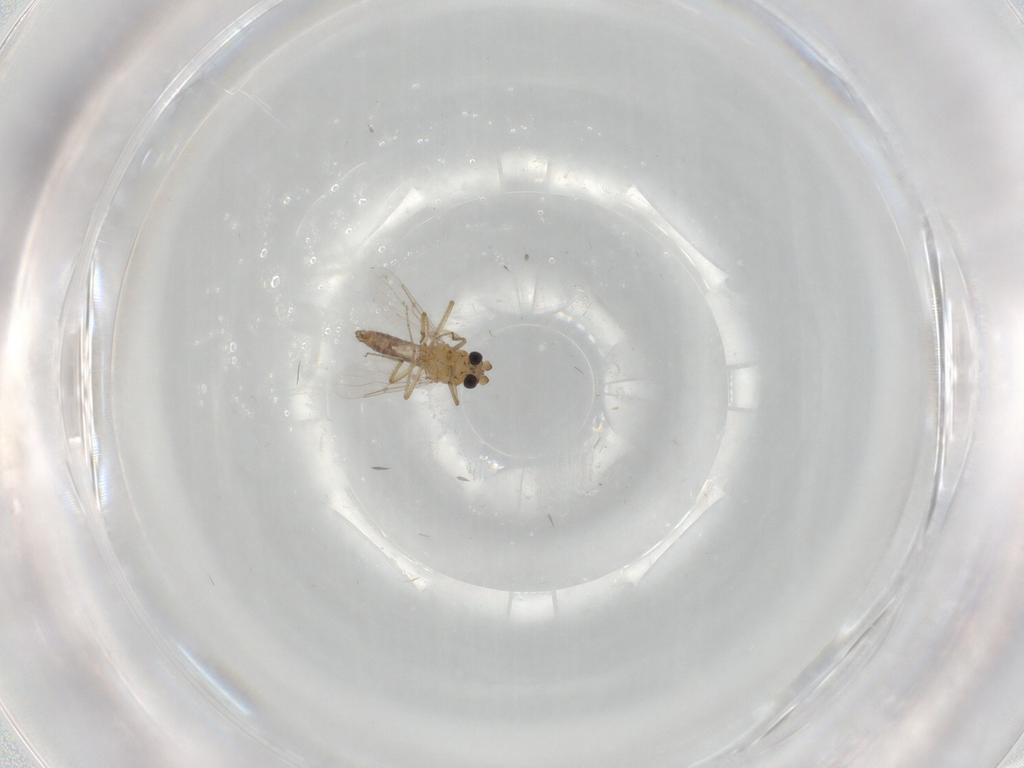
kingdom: Animalia
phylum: Arthropoda
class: Insecta
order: Diptera
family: Ceratopogonidae
